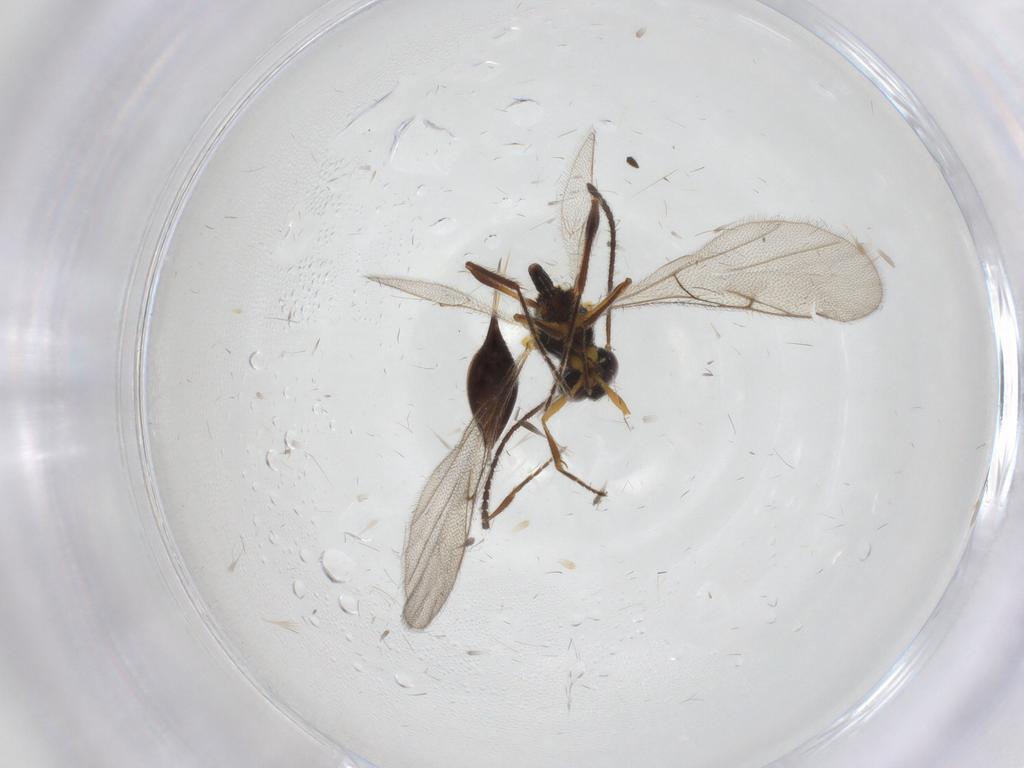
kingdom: Animalia
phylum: Arthropoda
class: Insecta
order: Hymenoptera
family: Diapriidae
